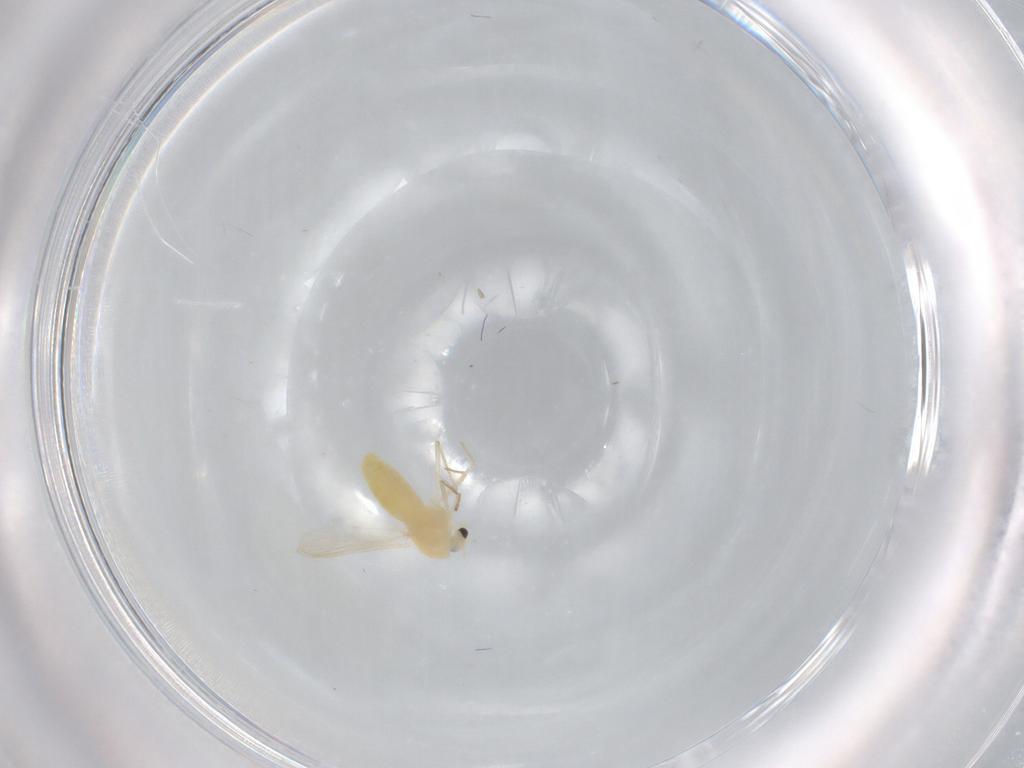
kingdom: Animalia
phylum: Arthropoda
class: Insecta
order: Diptera
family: Chironomidae
